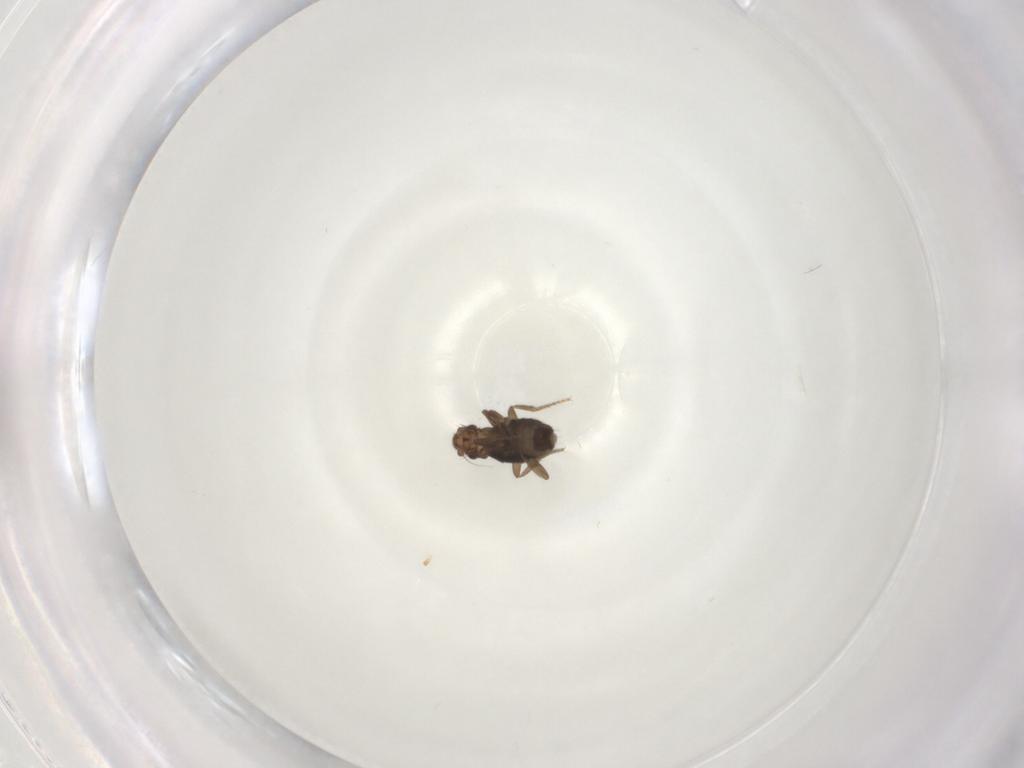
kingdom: Animalia
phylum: Arthropoda
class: Insecta
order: Diptera
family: Phoridae
